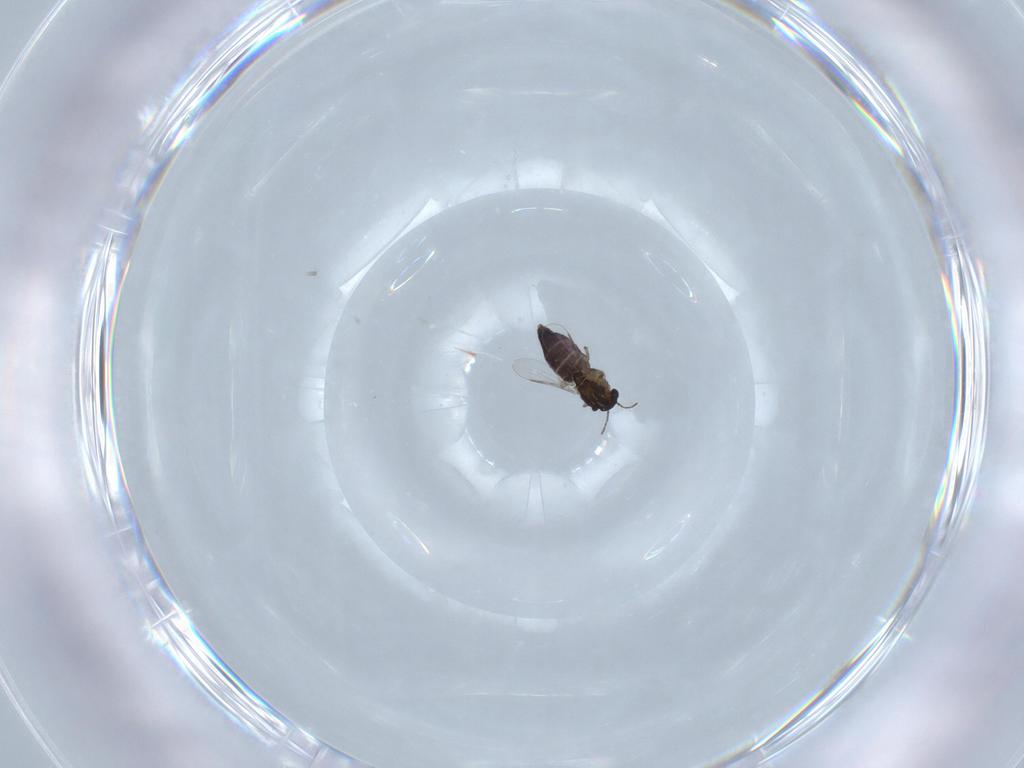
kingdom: Animalia
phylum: Arthropoda
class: Insecta
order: Diptera
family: Chironomidae
